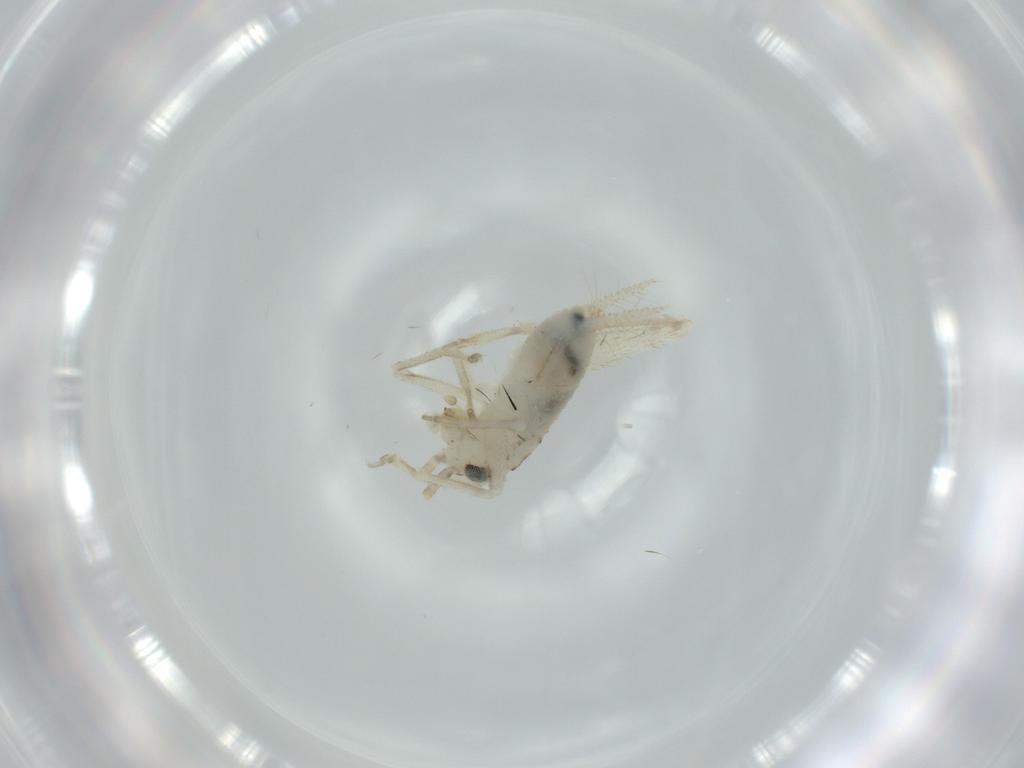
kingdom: Animalia
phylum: Arthropoda
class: Insecta
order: Orthoptera
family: Trigonidiidae
